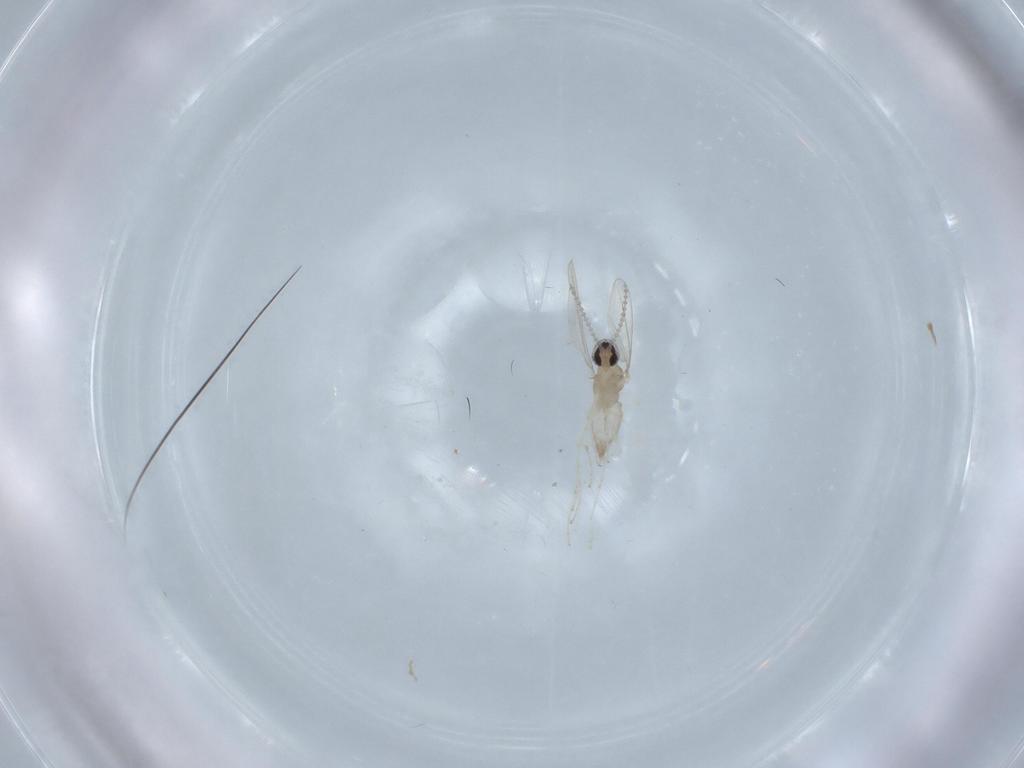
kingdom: Animalia
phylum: Arthropoda
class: Insecta
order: Diptera
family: Cecidomyiidae
